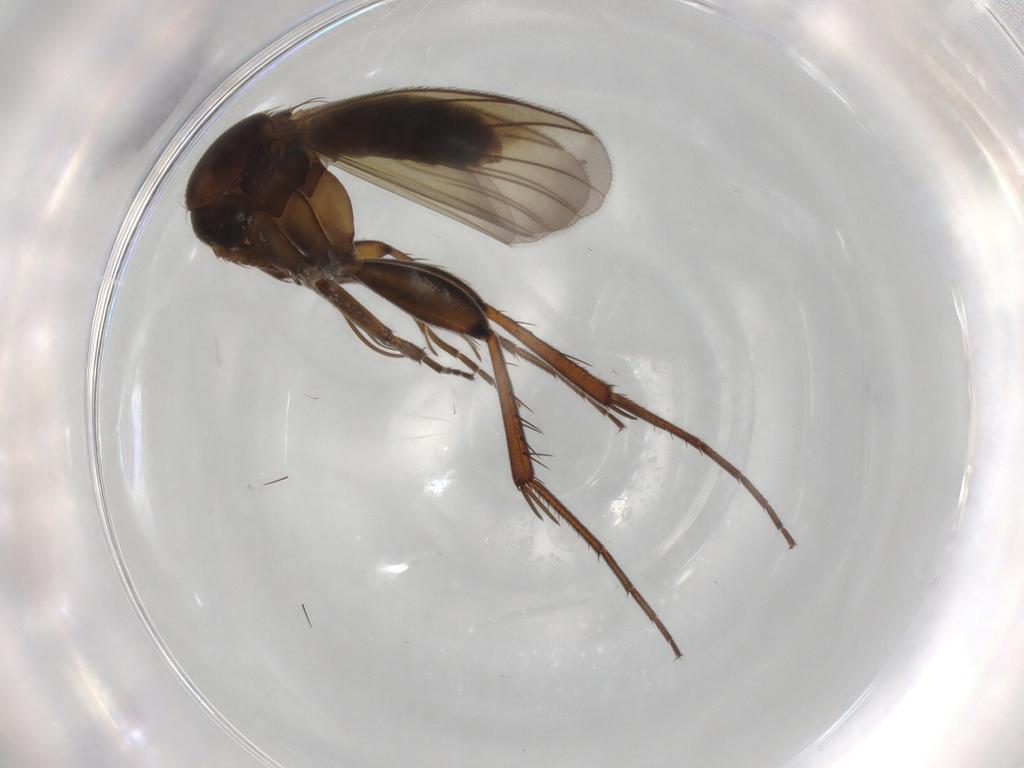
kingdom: Animalia
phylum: Arthropoda
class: Insecta
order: Diptera
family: Mycetophilidae
